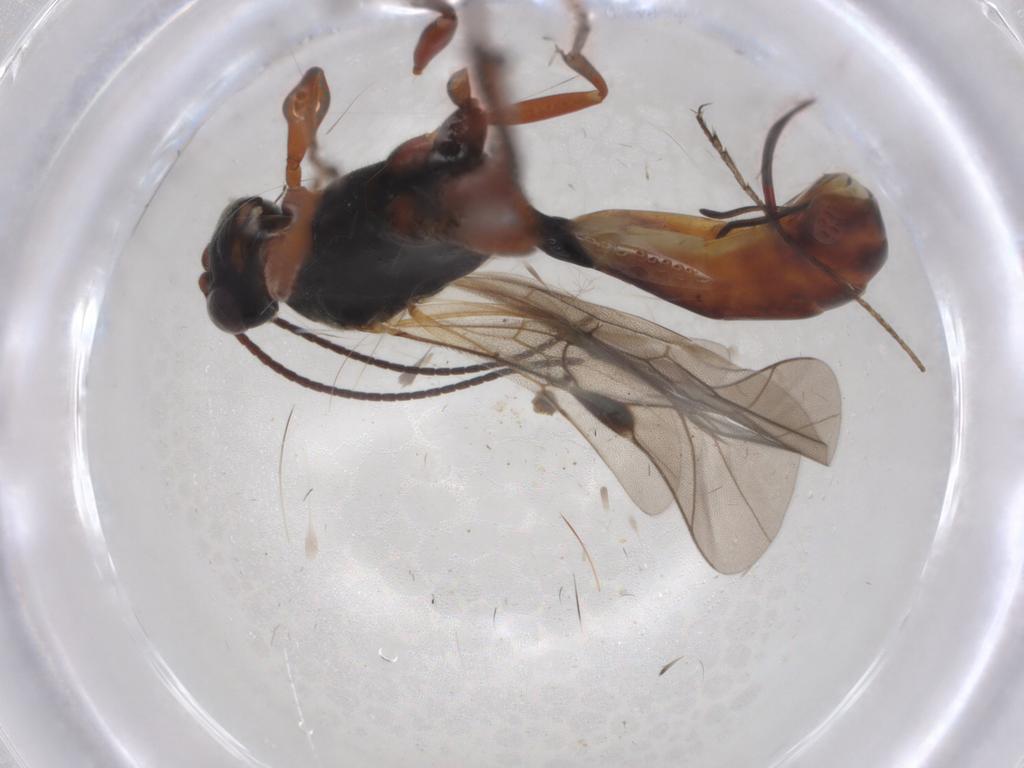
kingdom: Animalia
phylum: Arthropoda
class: Insecta
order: Hymenoptera
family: Ichneumonidae
